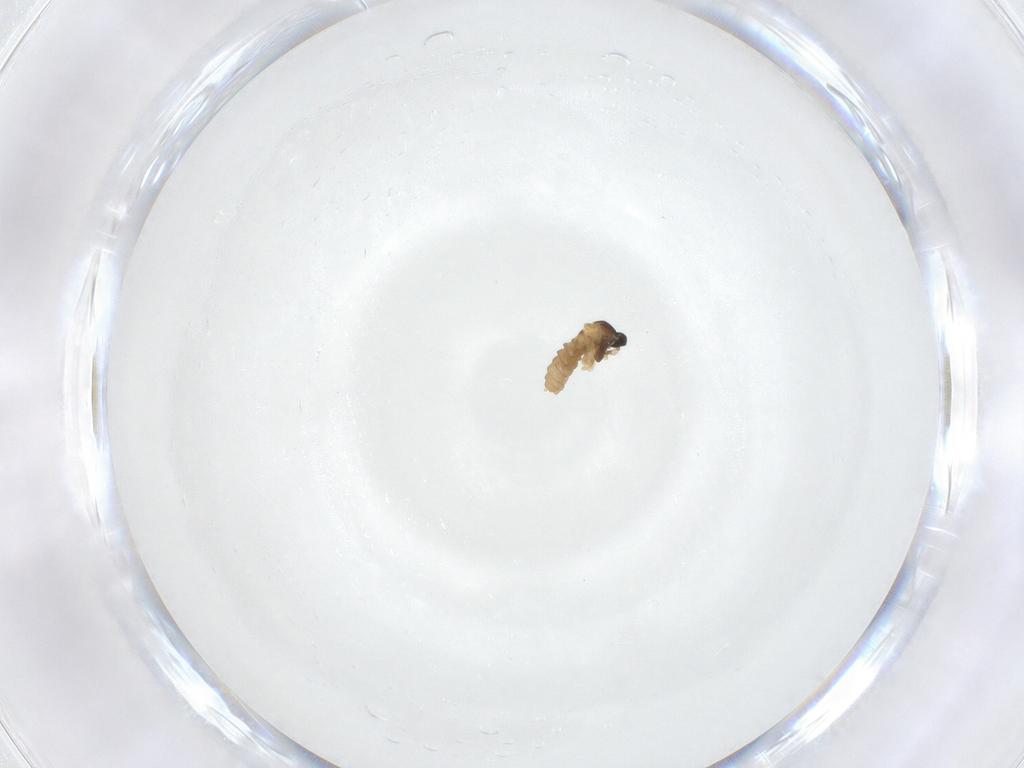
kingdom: Animalia
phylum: Arthropoda
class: Insecta
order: Diptera
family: Cecidomyiidae
